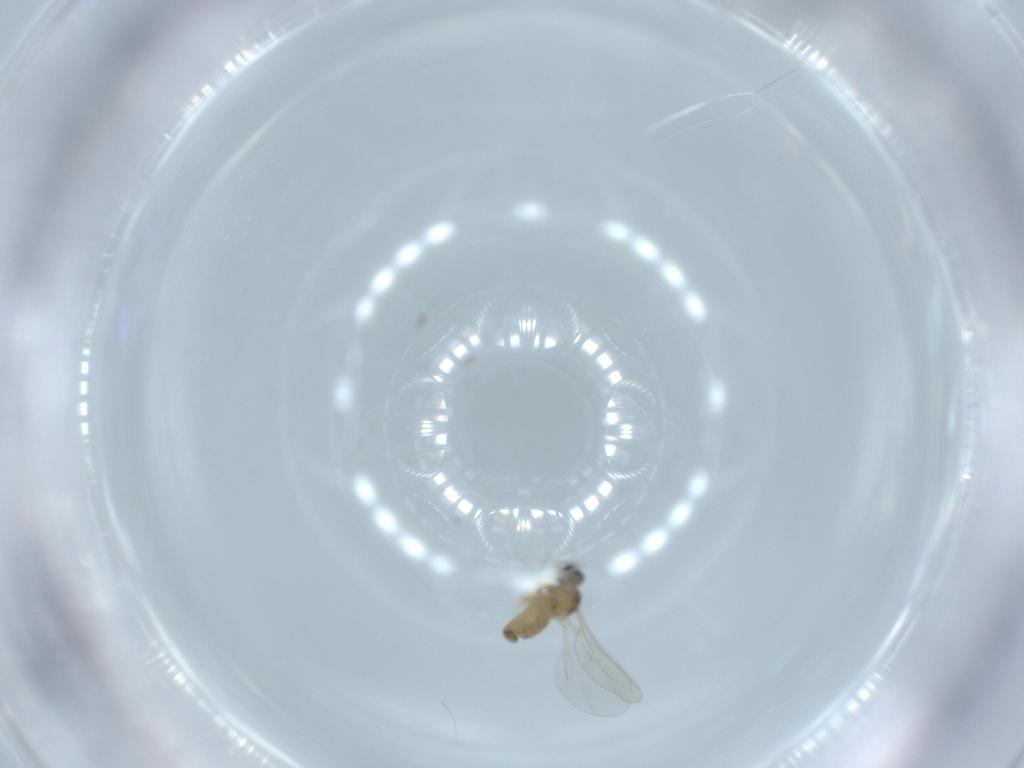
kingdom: Animalia
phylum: Arthropoda
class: Insecta
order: Diptera
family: Cecidomyiidae
